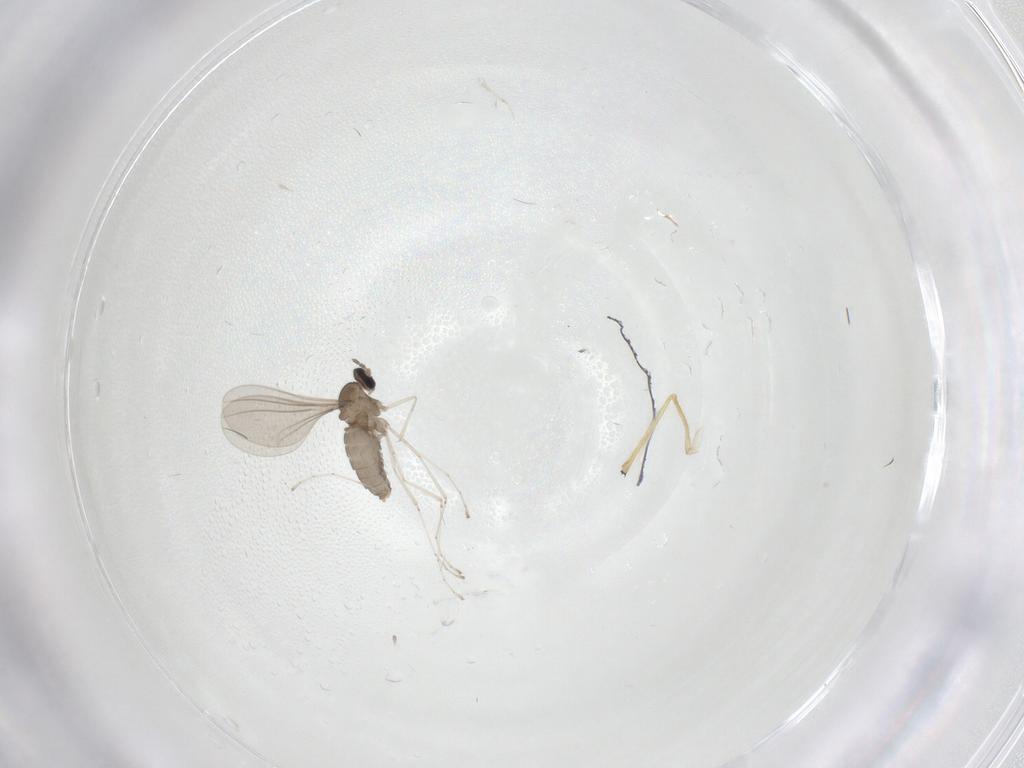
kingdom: Animalia
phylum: Arthropoda
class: Insecta
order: Diptera
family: Cecidomyiidae
